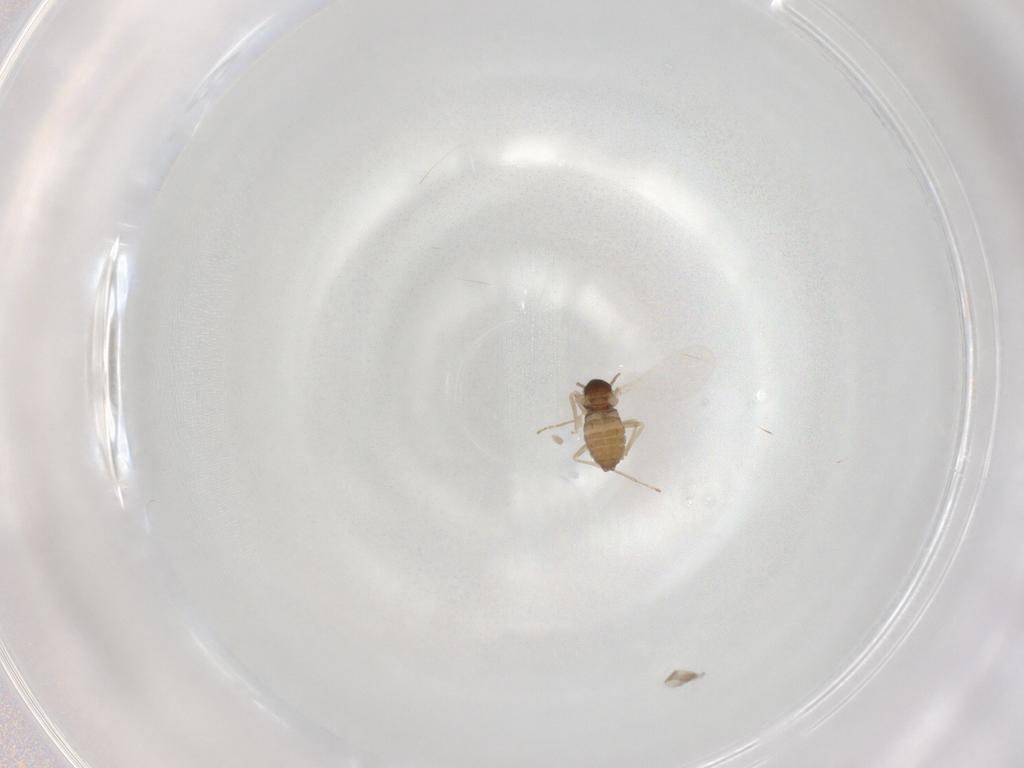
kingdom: Animalia
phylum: Arthropoda
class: Insecta
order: Diptera
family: Cecidomyiidae
